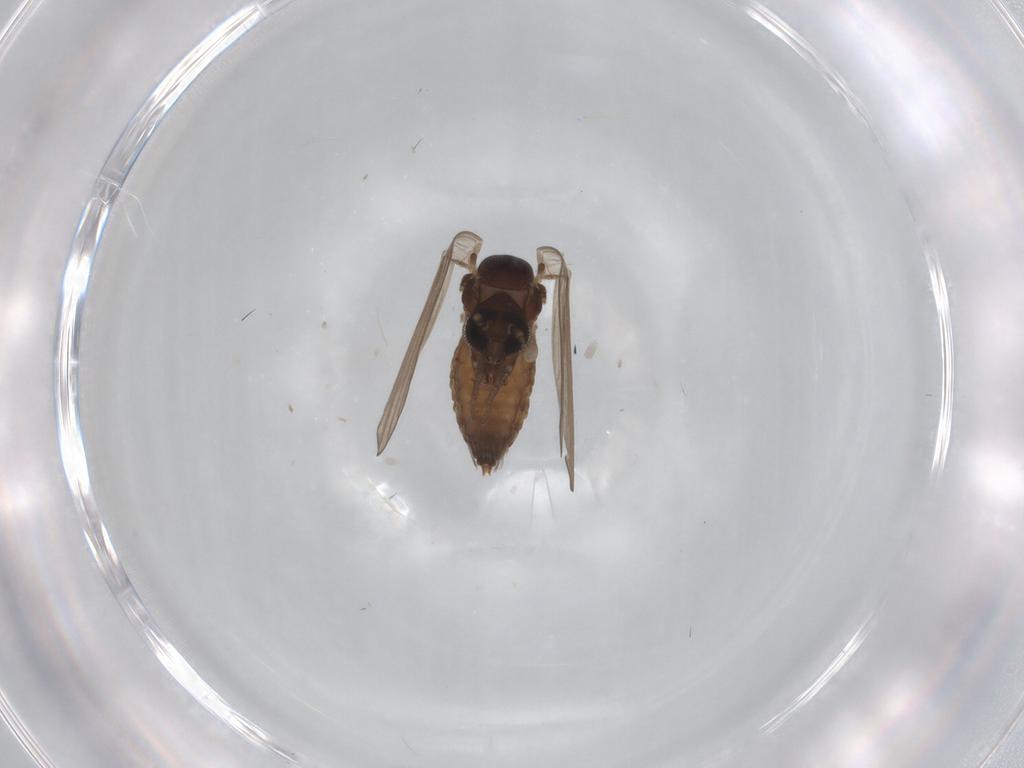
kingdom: Animalia
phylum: Arthropoda
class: Insecta
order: Diptera
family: Psychodidae
